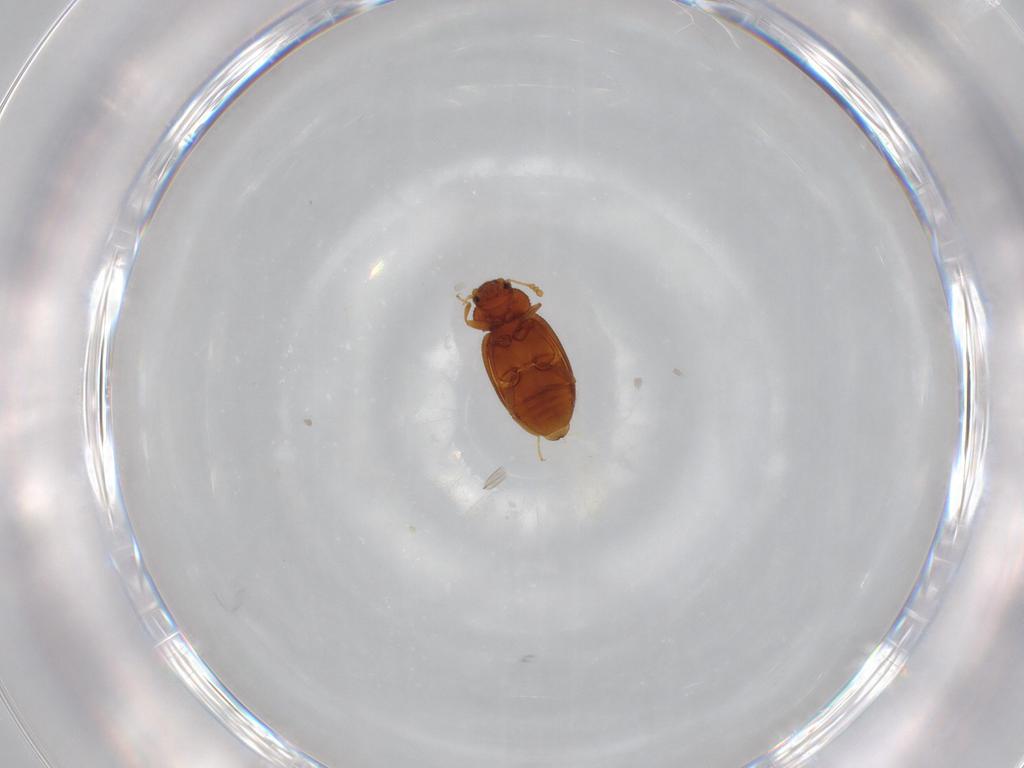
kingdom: Animalia
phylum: Arthropoda
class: Insecta
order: Coleoptera
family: Latridiidae
